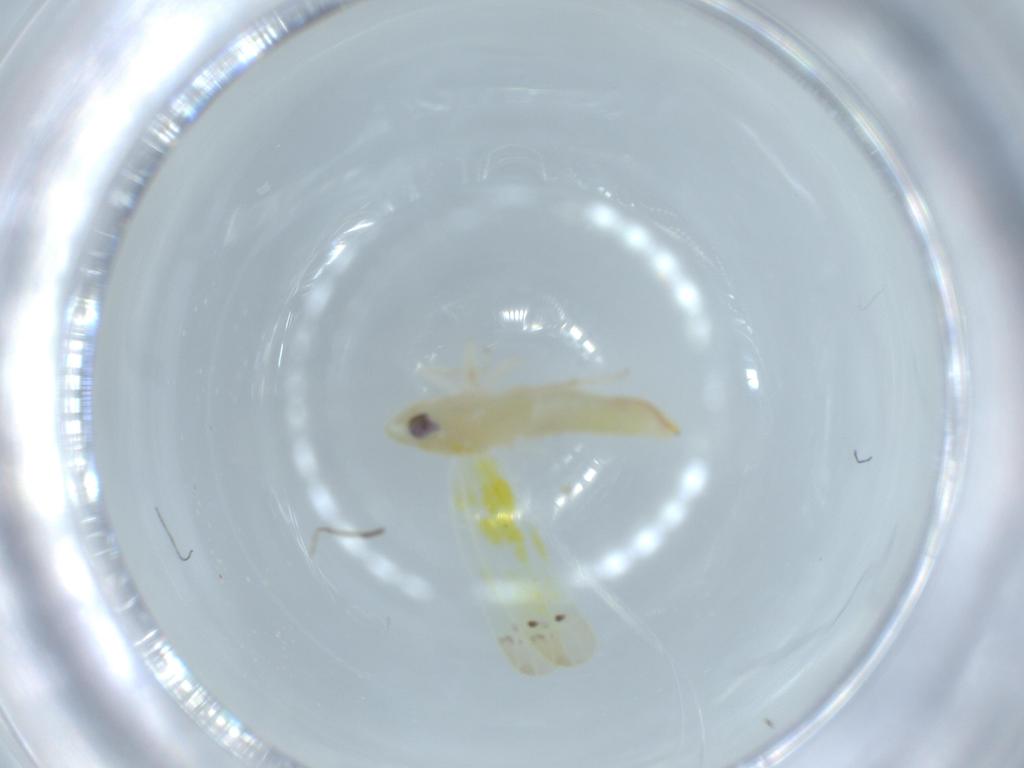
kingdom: Animalia
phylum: Arthropoda
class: Insecta
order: Hemiptera
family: Cicadellidae
